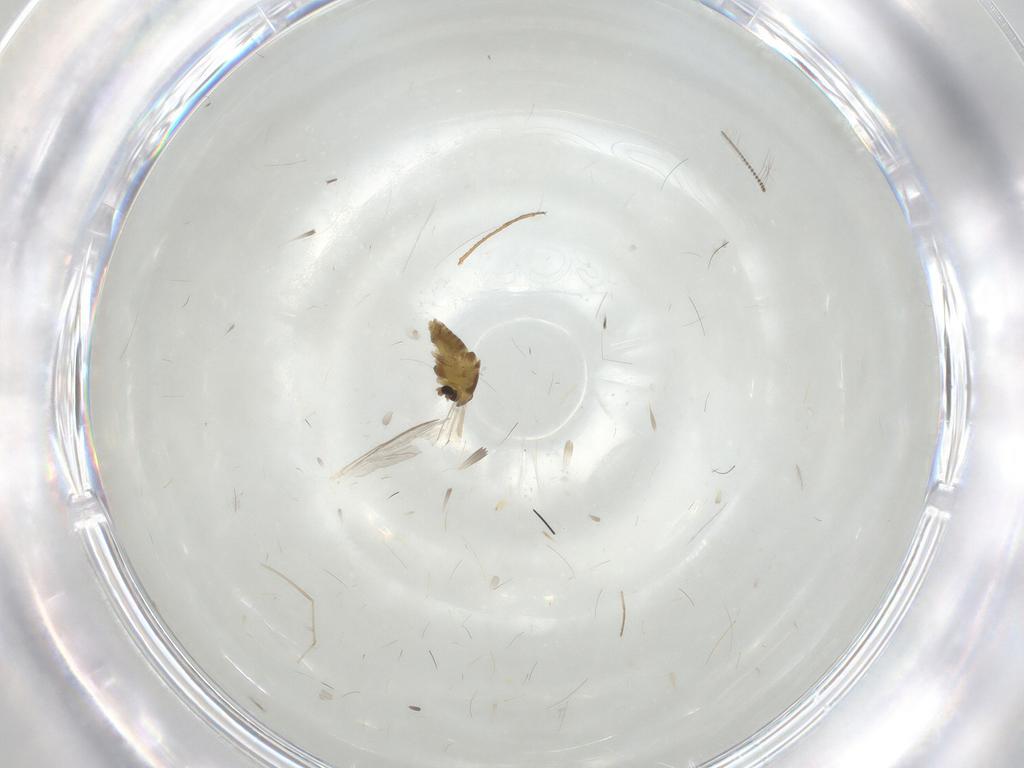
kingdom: Animalia
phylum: Arthropoda
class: Insecta
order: Diptera
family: Chironomidae
